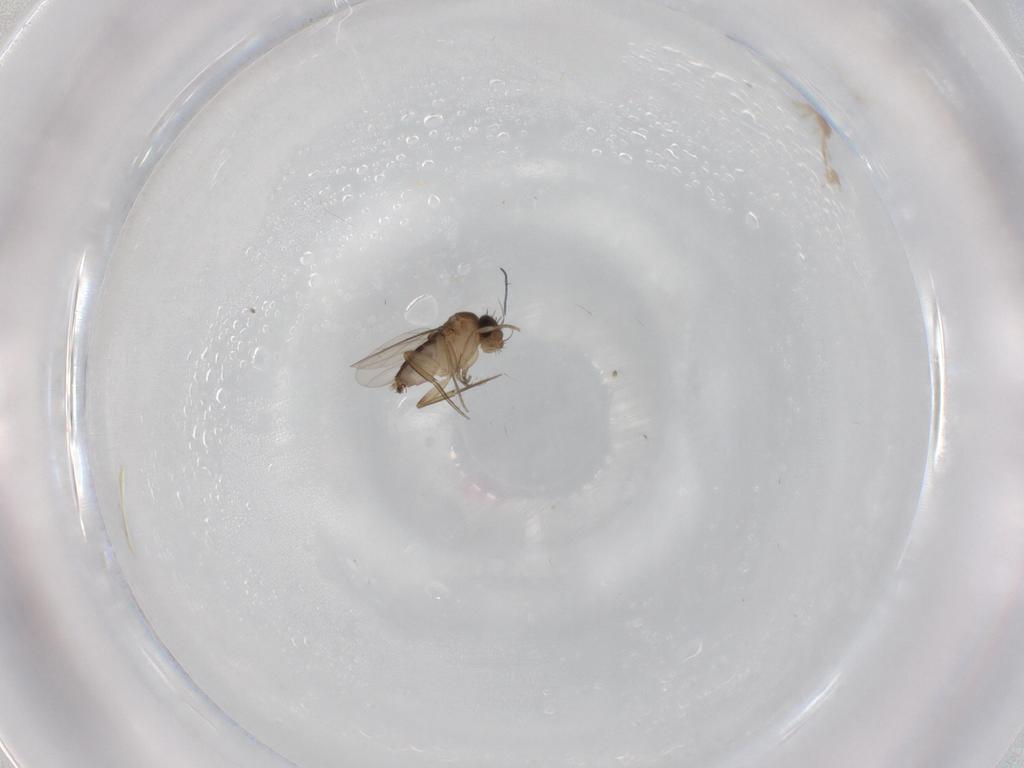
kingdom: Animalia
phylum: Arthropoda
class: Insecta
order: Diptera
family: Phoridae
